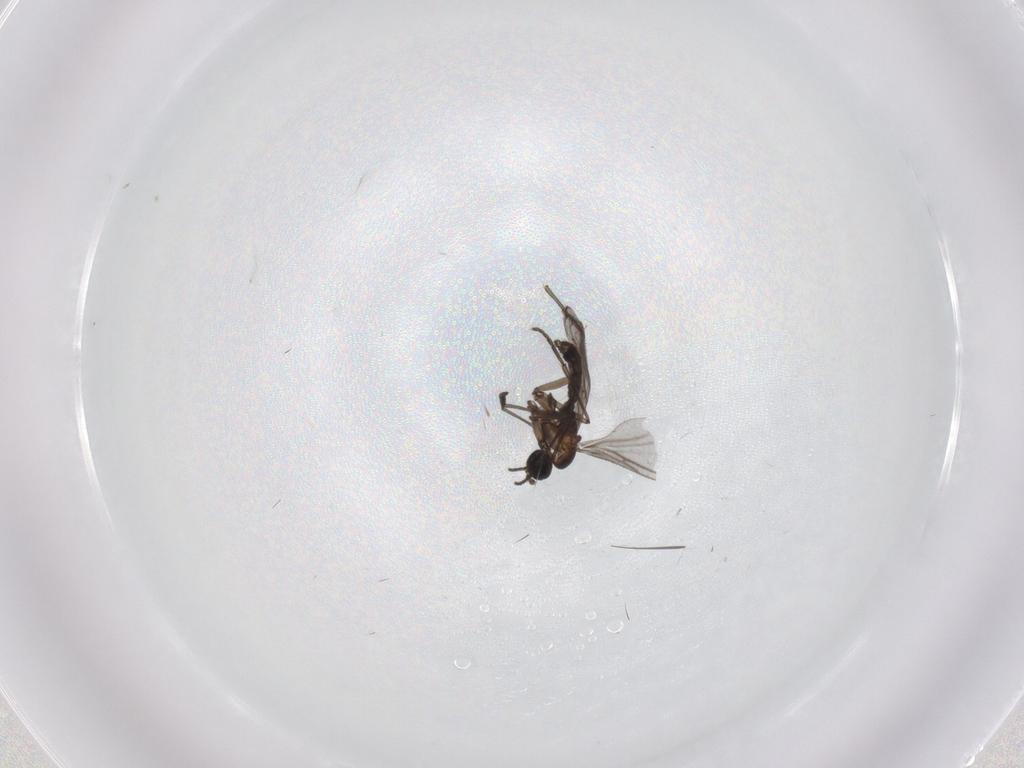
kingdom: Animalia
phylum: Arthropoda
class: Insecta
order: Diptera
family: Sciaridae
